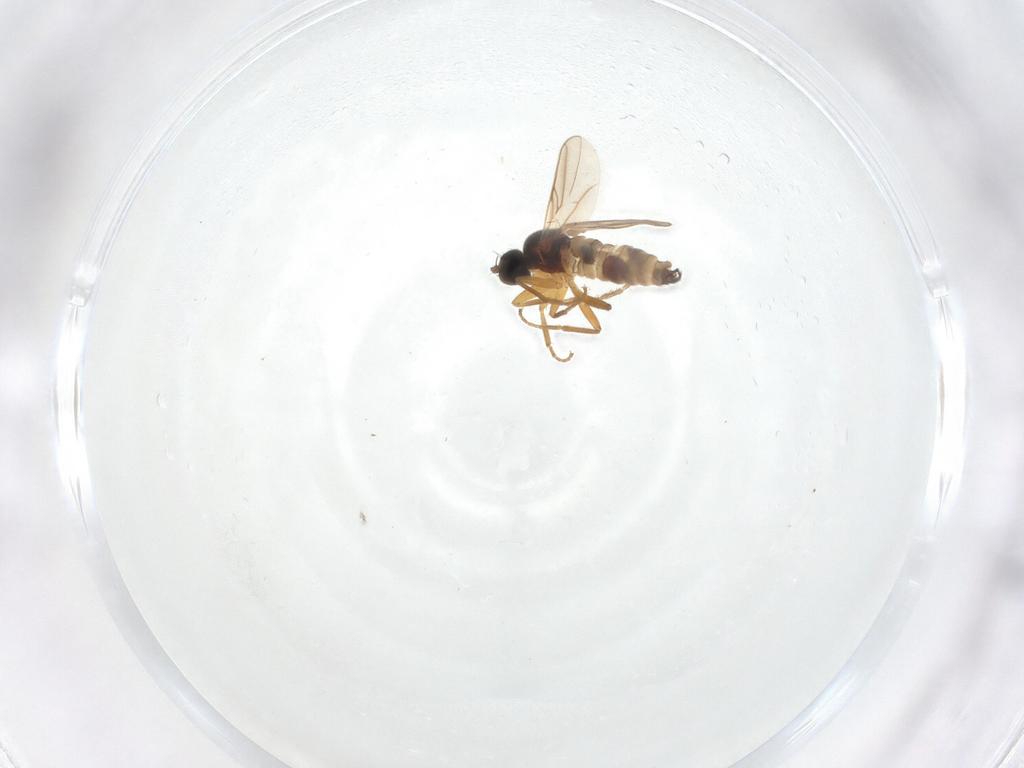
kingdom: Animalia
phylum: Arthropoda
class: Insecta
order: Diptera
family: Hybotidae
